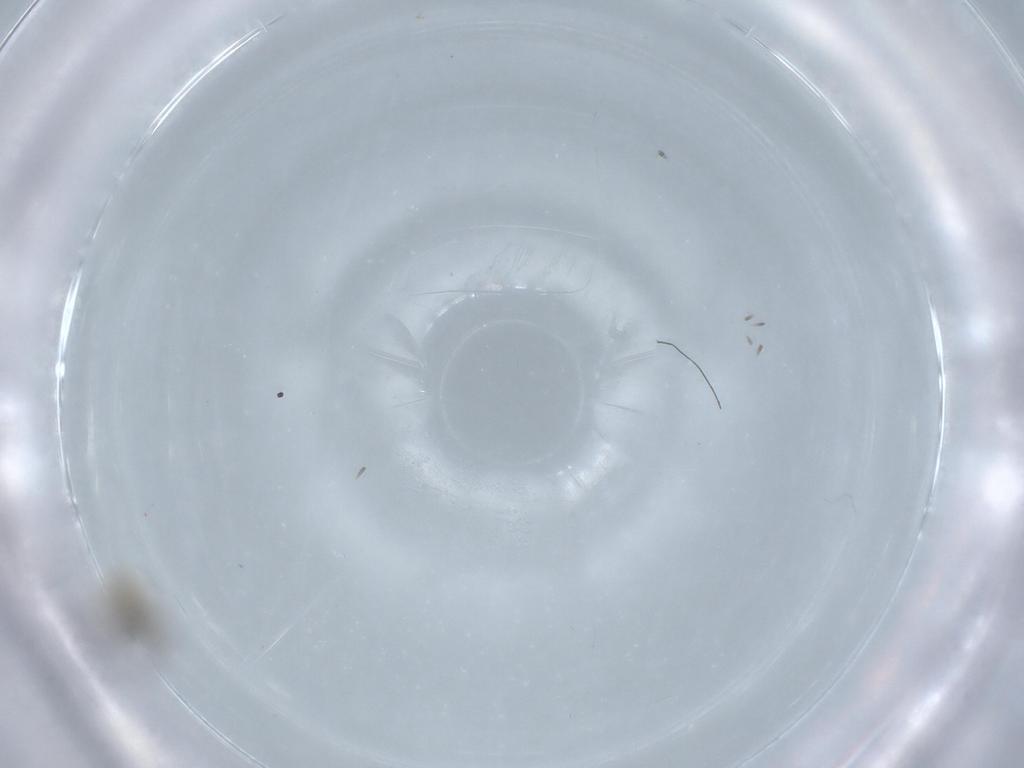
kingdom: Animalia
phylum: Arthropoda
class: Insecta
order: Diptera
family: Cecidomyiidae
